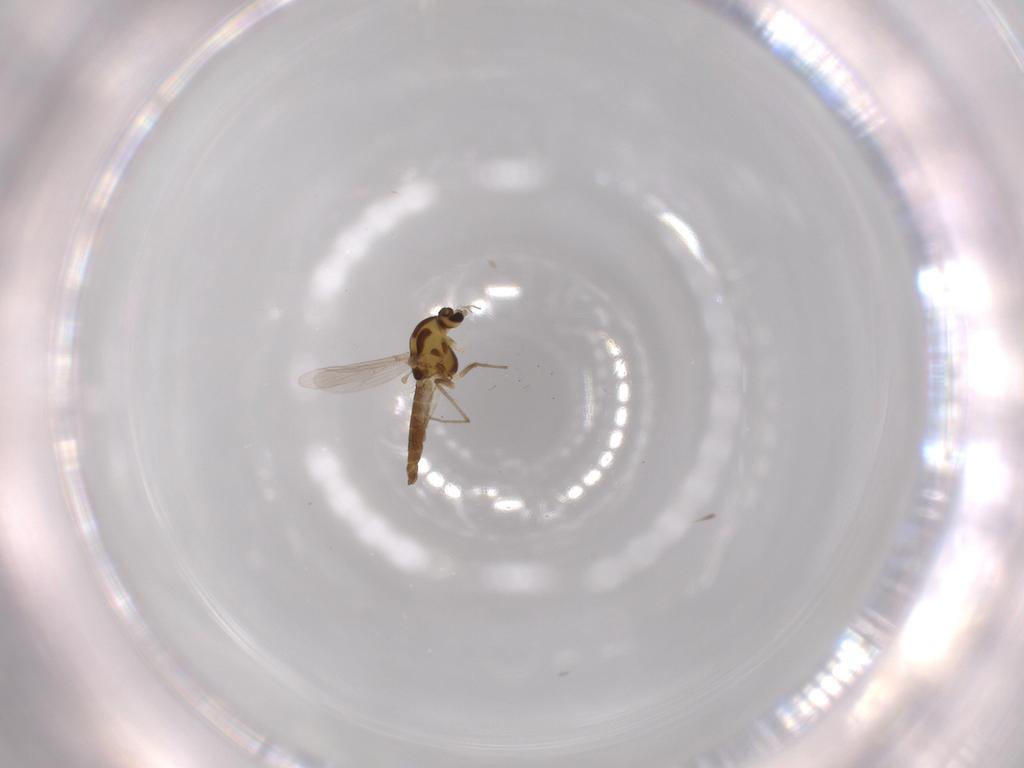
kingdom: Animalia
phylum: Arthropoda
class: Insecta
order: Diptera
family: Chironomidae
